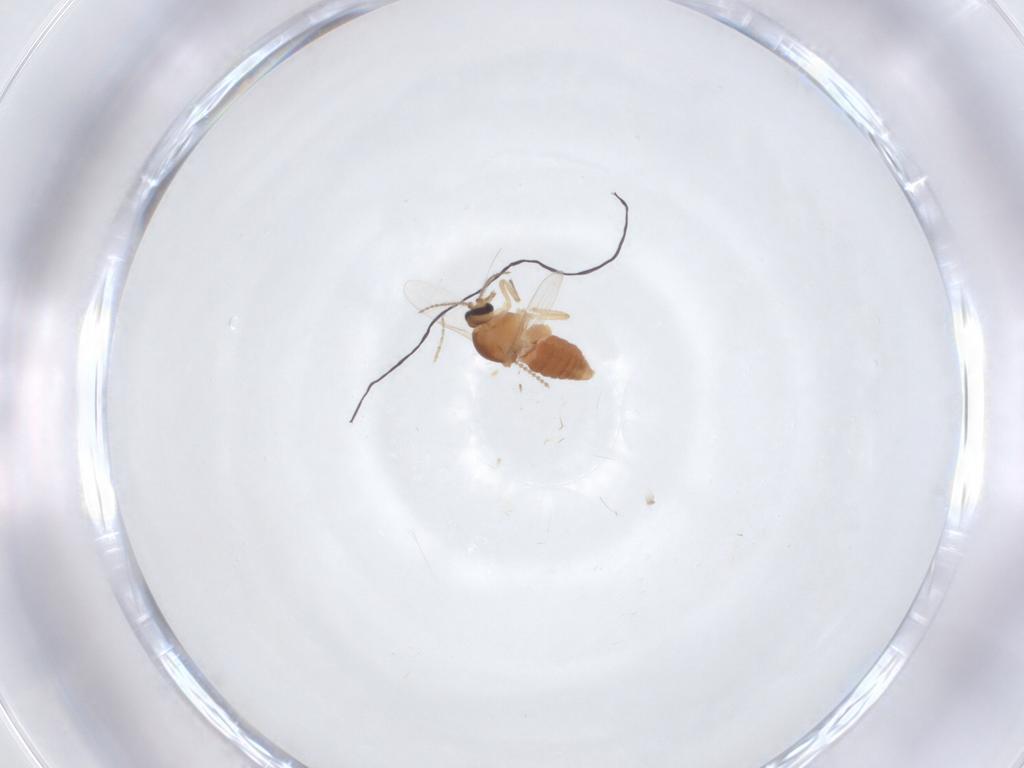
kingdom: Animalia
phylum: Arthropoda
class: Insecta
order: Diptera
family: Cecidomyiidae
